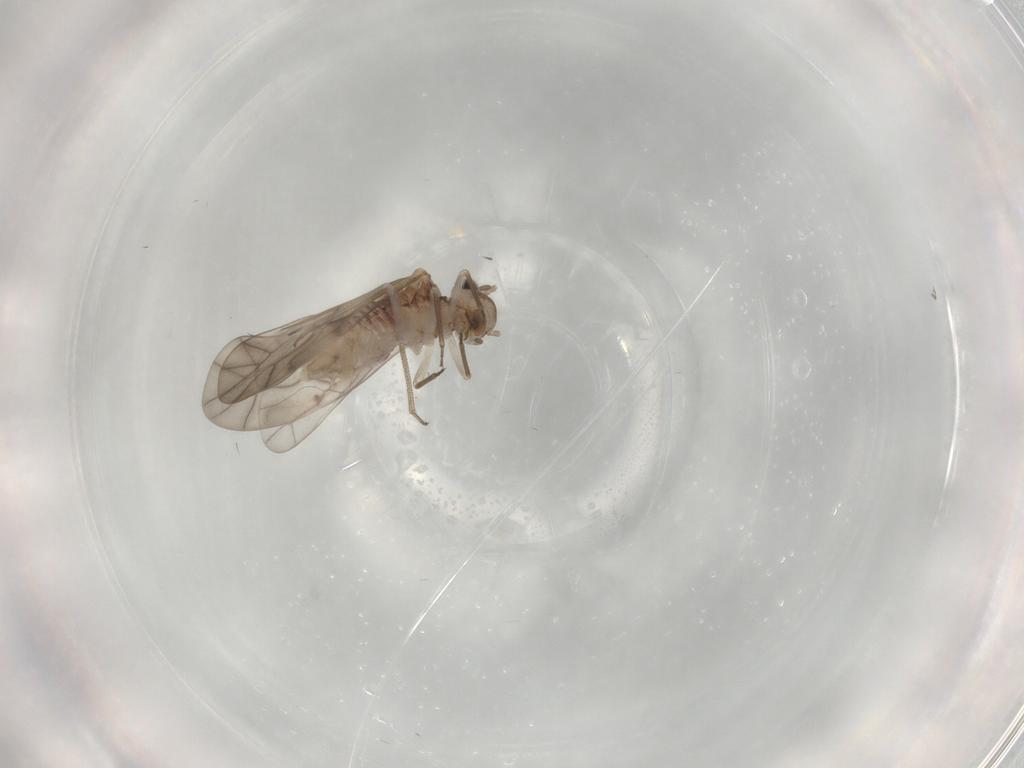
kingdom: Animalia
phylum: Arthropoda
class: Insecta
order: Psocodea
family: Ectopsocidae
